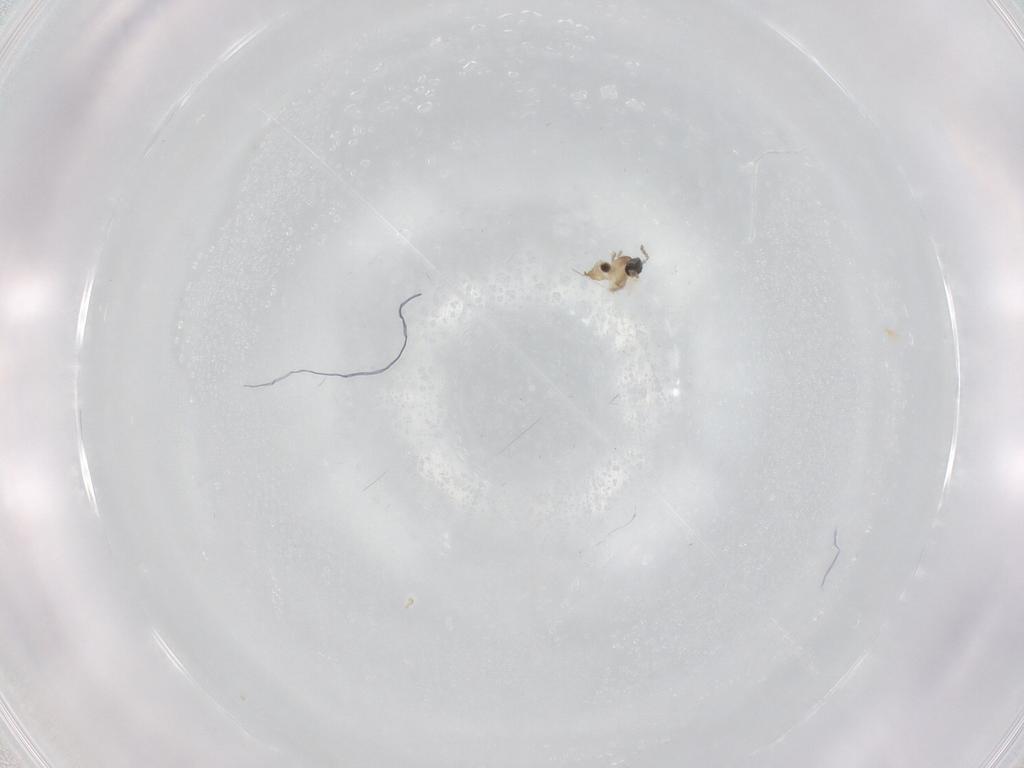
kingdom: Animalia
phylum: Arthropoda
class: Insecta
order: Diptera
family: Cecidomyiidae
